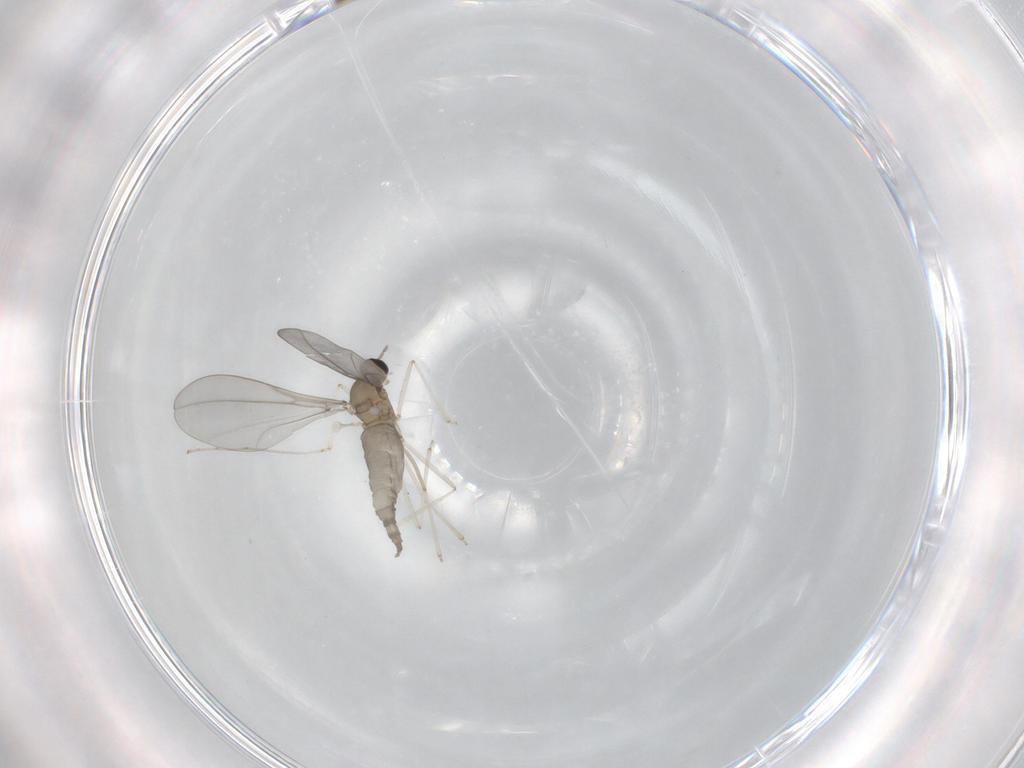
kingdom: Animalia
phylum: Arthropoda
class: Insecta
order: Diptera
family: Cecidomyiidae
